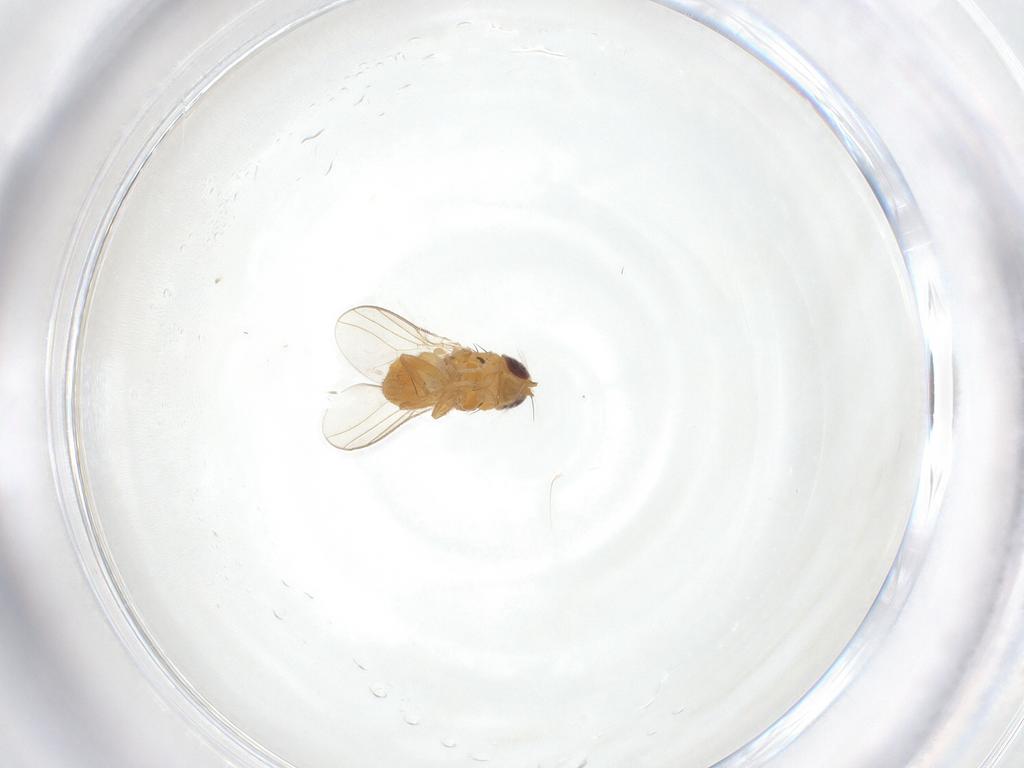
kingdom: Animalia
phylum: Arthropoda
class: Insecta
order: Diptera
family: Chloropidae
